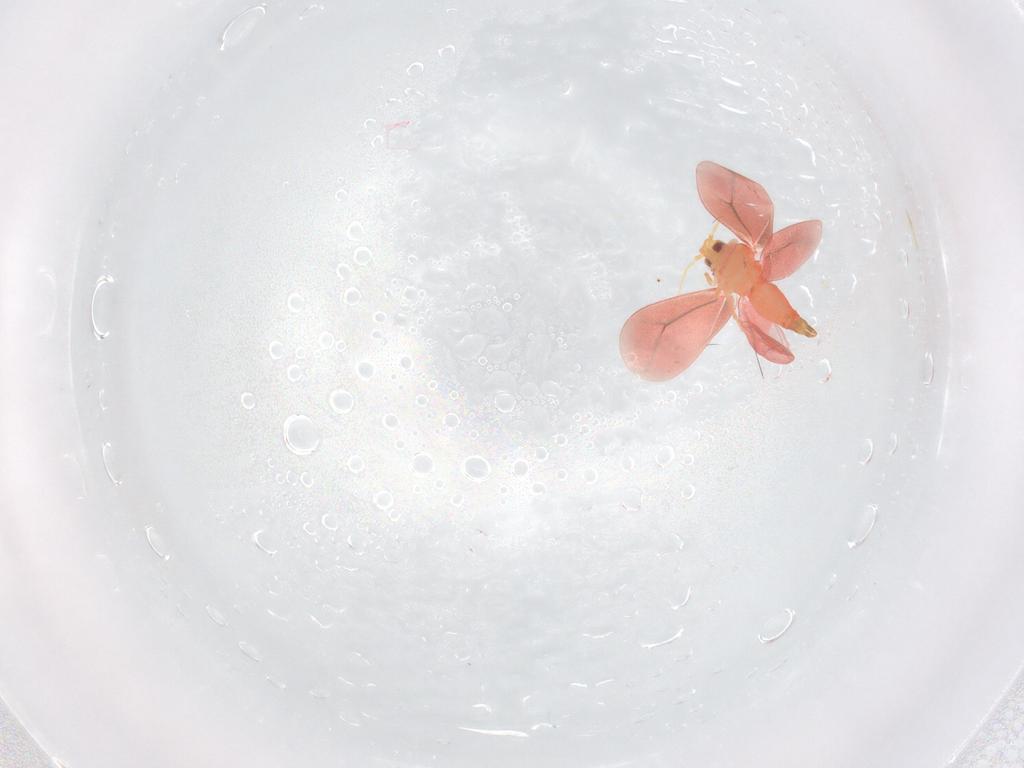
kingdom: Animalia
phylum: Arthropoda
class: Insecta
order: Hemiptera
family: Aleyrodidae
